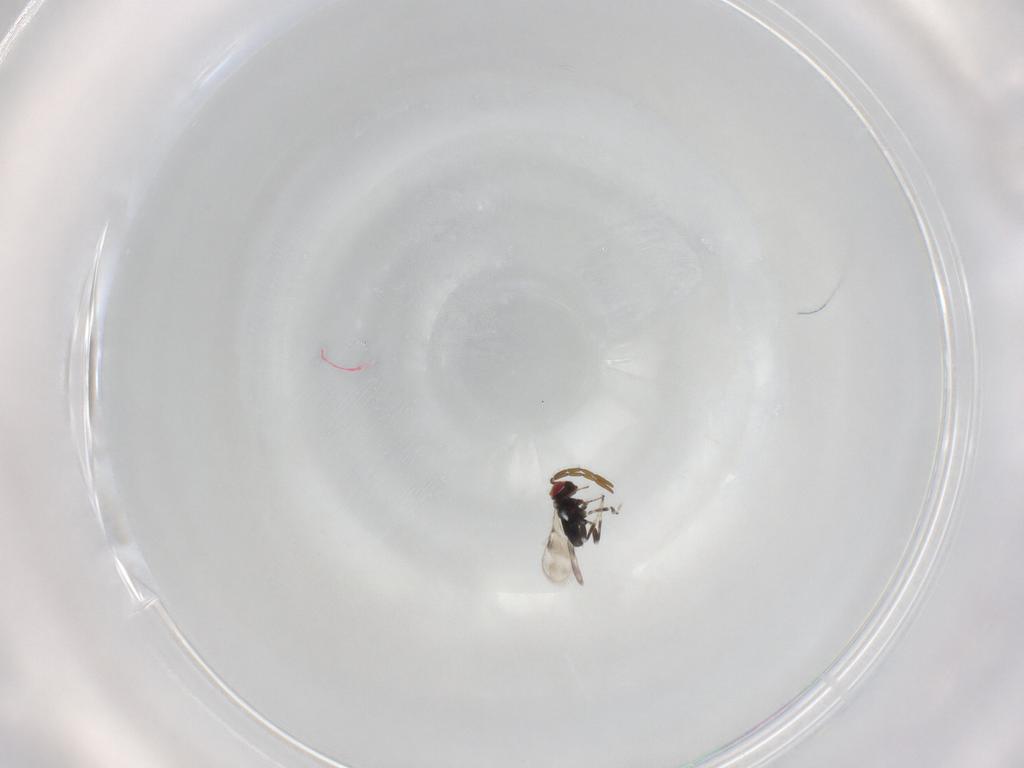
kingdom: Animalia
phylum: Arthropoda
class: Insecta
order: Hymenoptera
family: Azotidae
